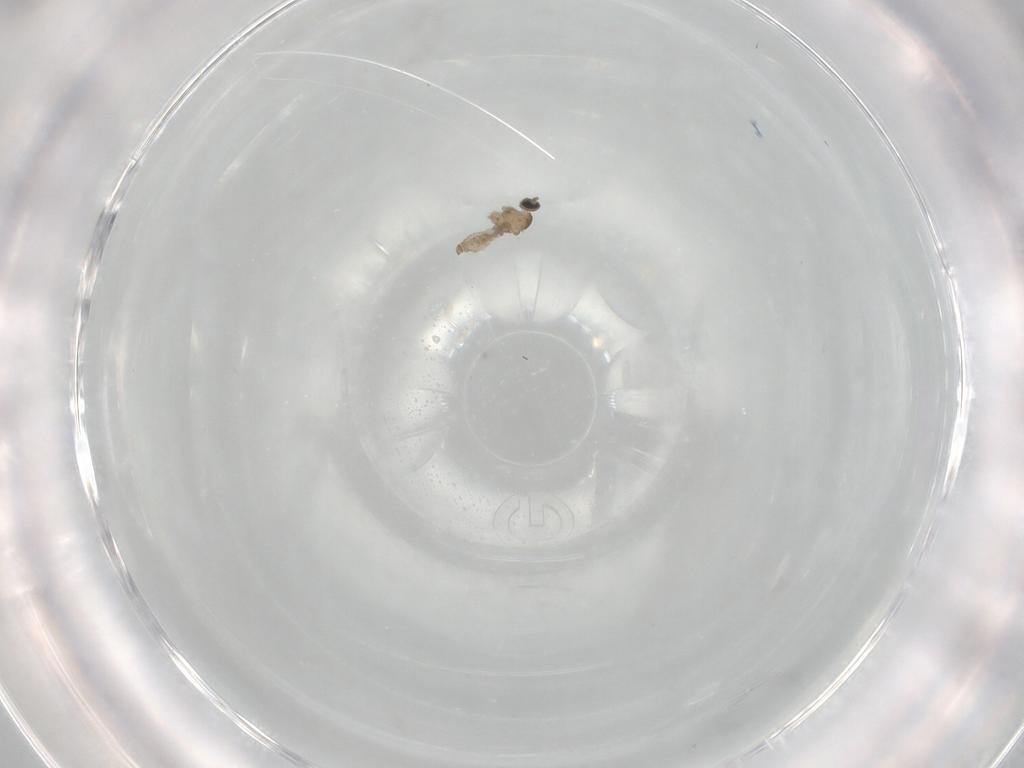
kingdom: Animalia
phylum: Arthropoda
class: Insecta
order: Diptera
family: Cecidomyiidae
